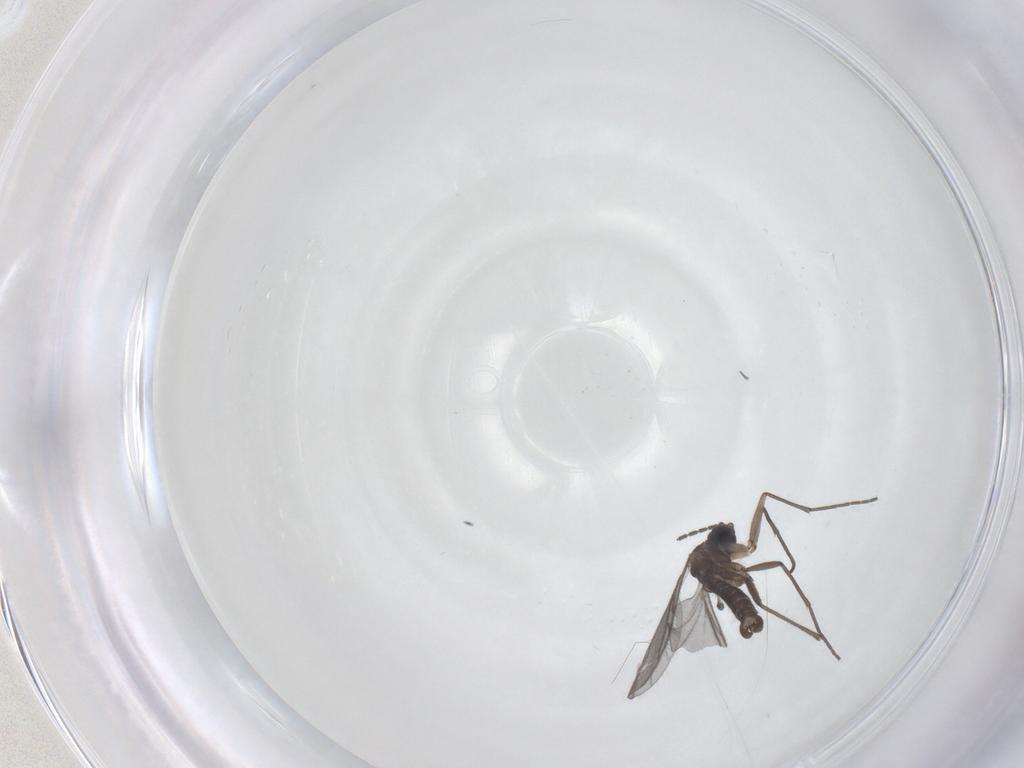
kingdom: Animalia
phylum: Arthropoda
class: Insecta
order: Diptera
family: Sciaridae
